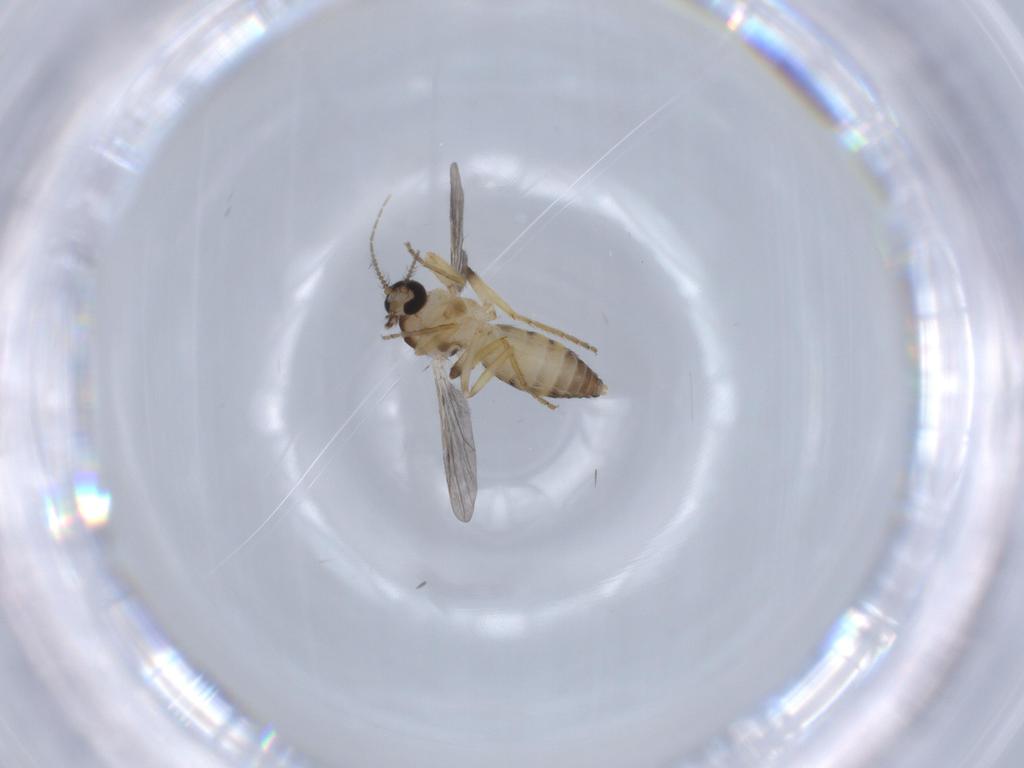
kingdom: Animalia
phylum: Arthropoda
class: Insecta
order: Diptera
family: Ceratopogonidae
